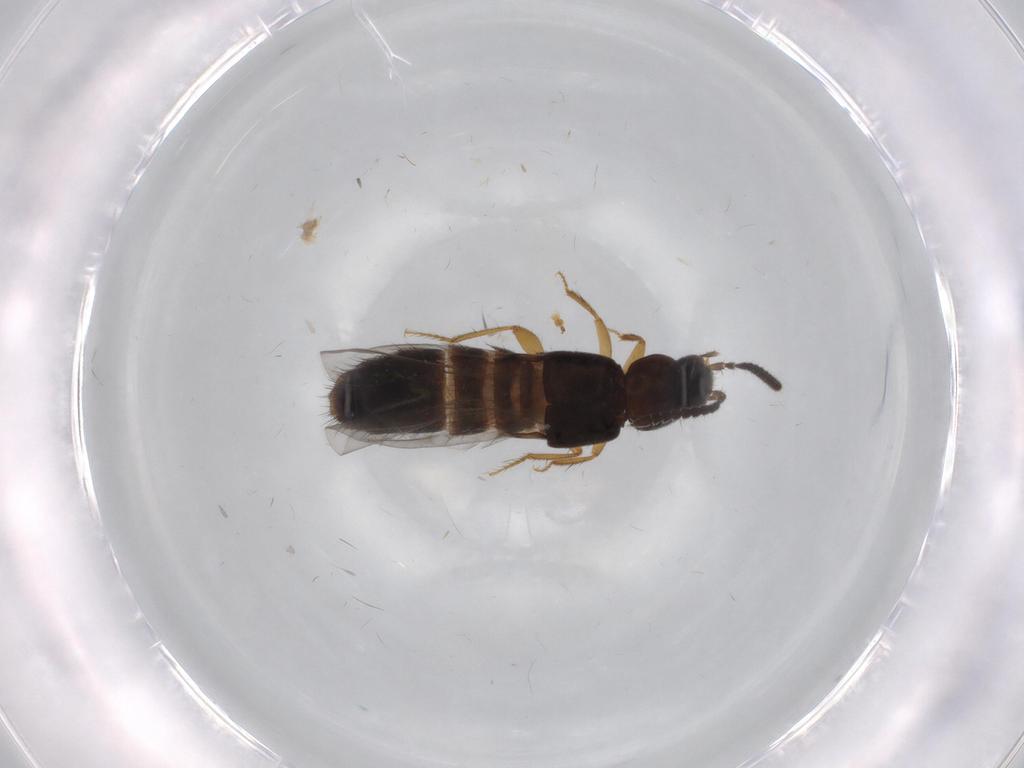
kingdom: Animalia
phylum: Arthropoda
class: Insecta
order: Coleoptera
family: Staphylinidae
